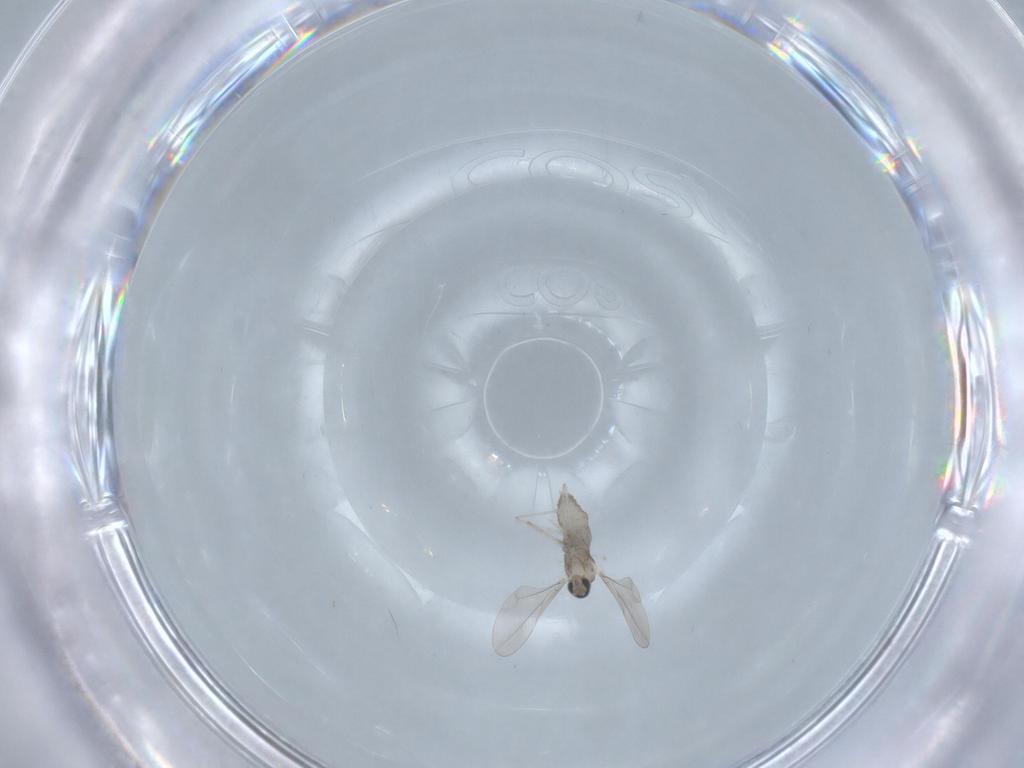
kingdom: Animalia
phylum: Arthropoda
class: Insecta
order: Diptera
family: Cecidomyiidae
